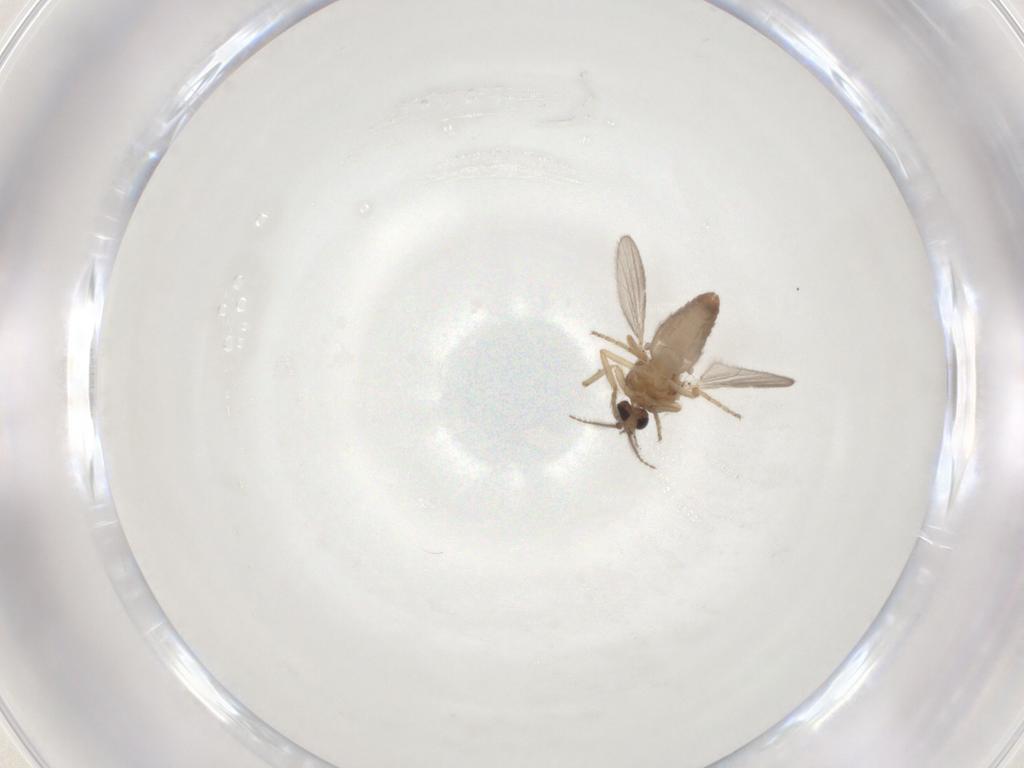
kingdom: Animalia
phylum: Arthropoda
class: Insecta
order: Diptera
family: Ceratopogonidae
